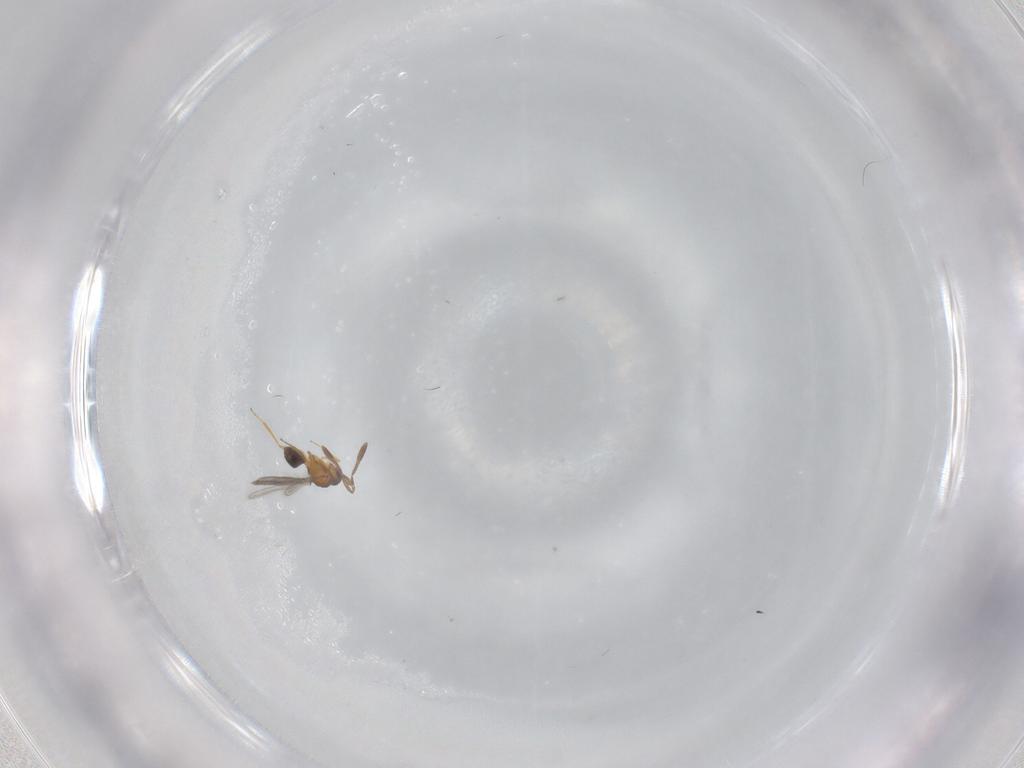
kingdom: Animalia
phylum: Arthropoda
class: Insecta
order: Hymenoptera
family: Mymaridae
